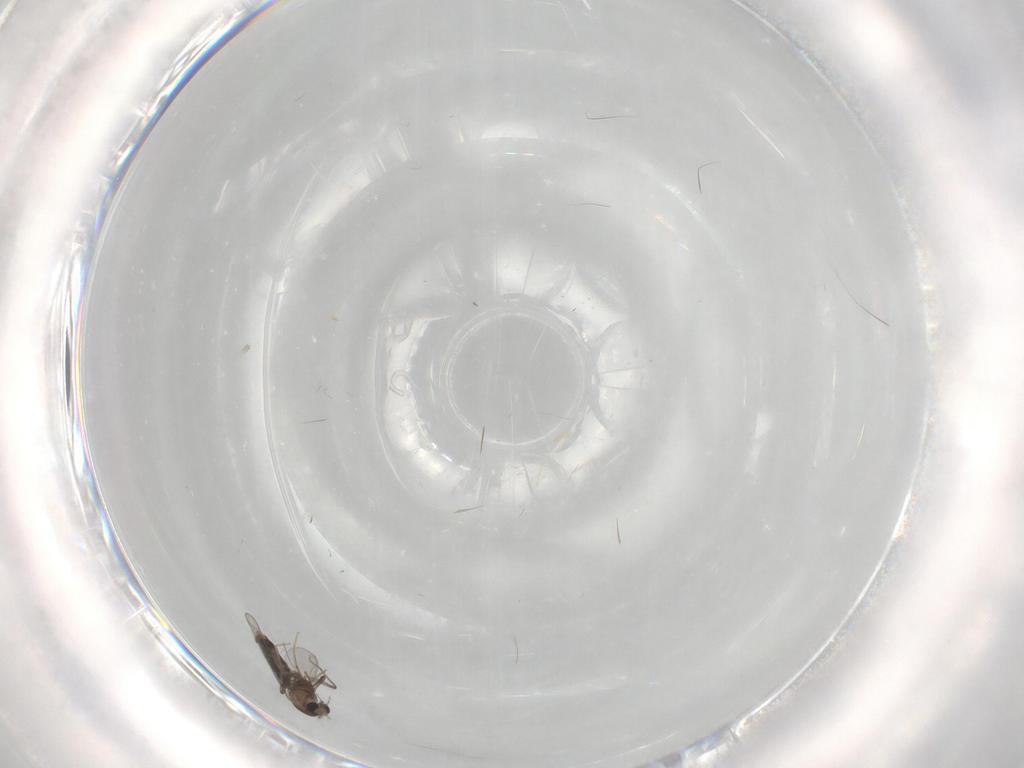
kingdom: Animalia
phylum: Arthropoda
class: Insecta
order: Diptera
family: Chironomidae
